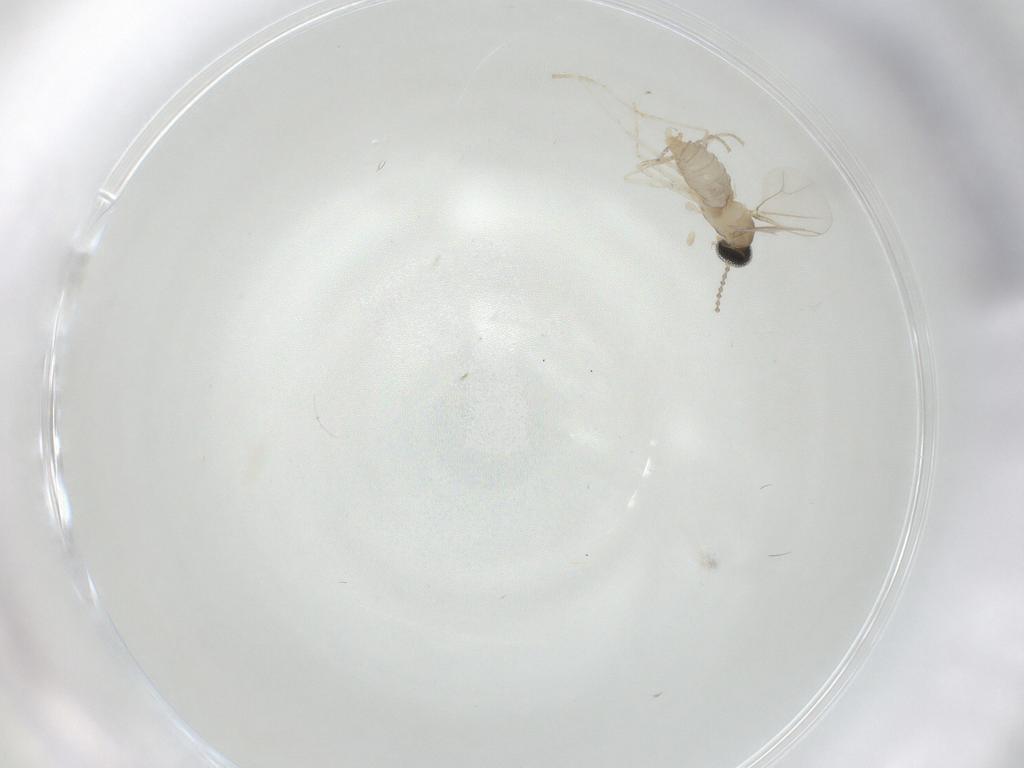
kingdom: Animalia
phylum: Arthropoda
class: Insecta
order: Diptera
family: Cecidomyiidae
